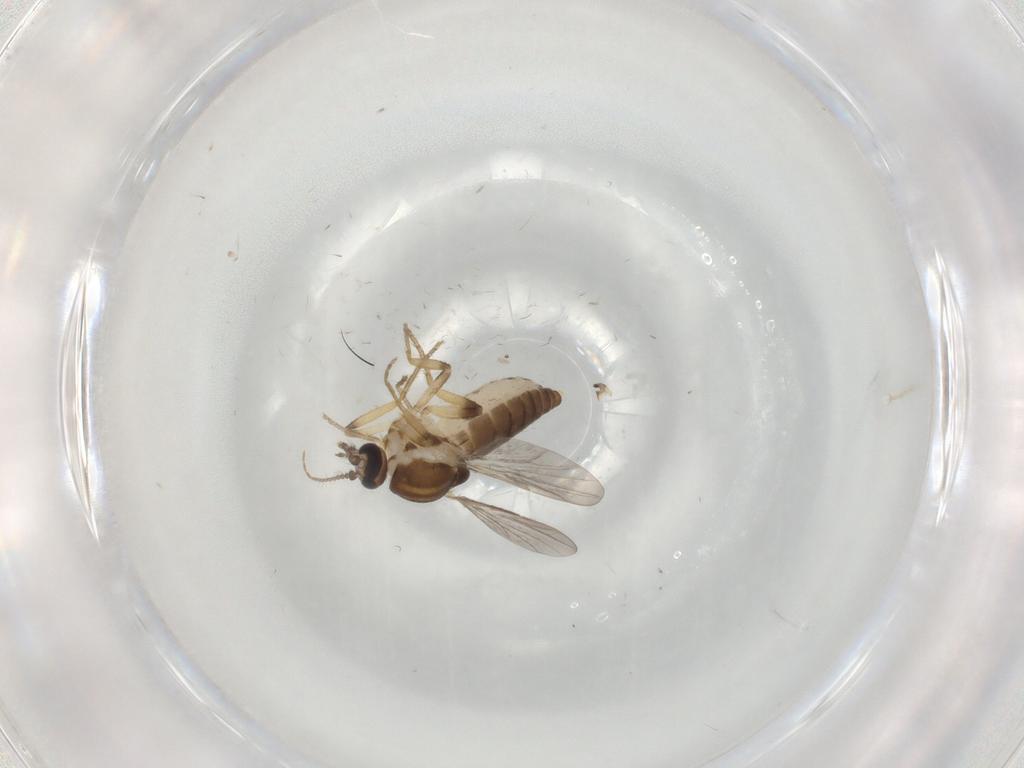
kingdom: Animalia
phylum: Arthropoda
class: Insecta
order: Diptera
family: Ceratopogonidae
